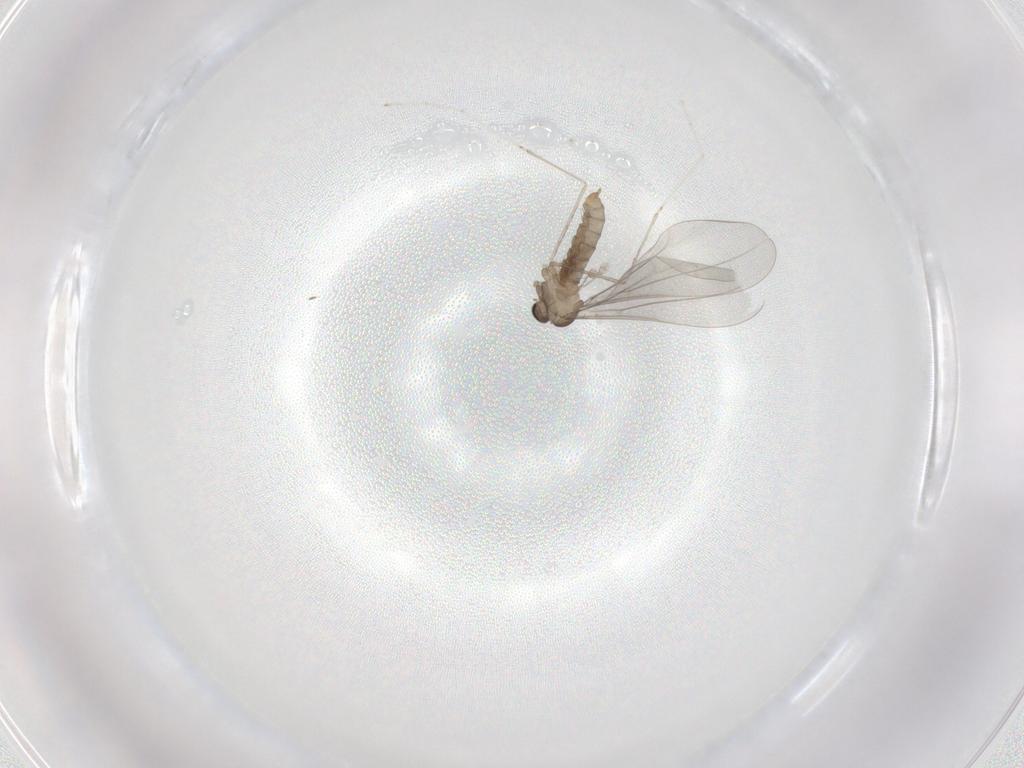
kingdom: Animalia
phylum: Arthropoda
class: Insecta
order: Diptera
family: Cecidomyiidae
